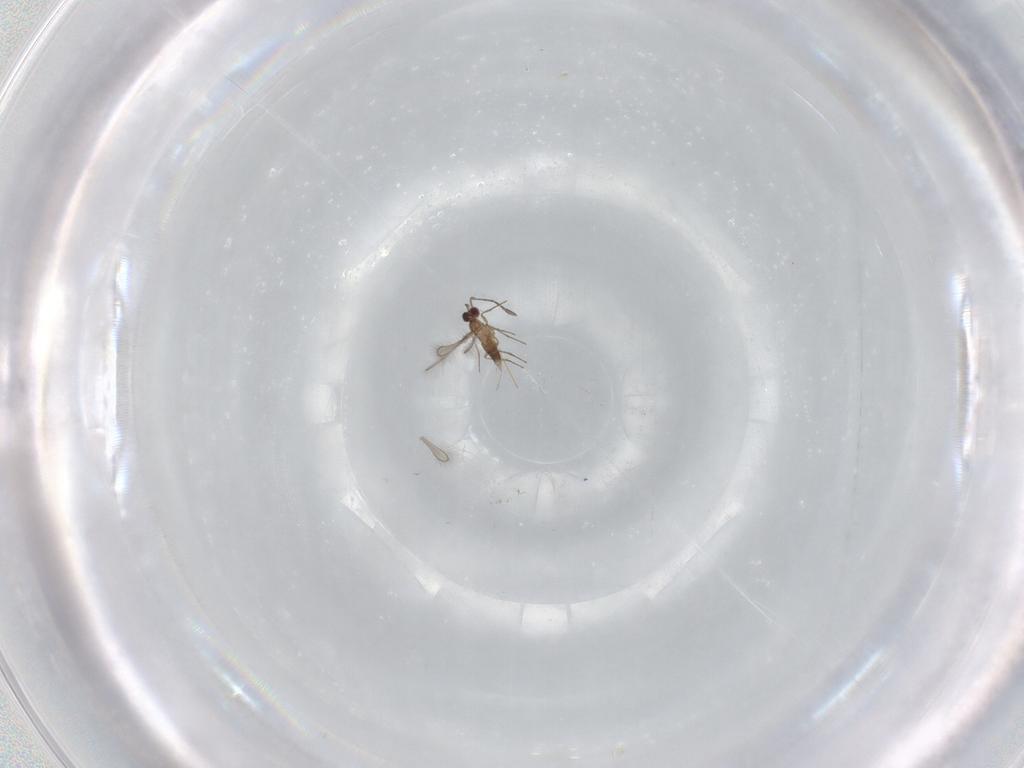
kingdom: Animalia
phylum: Arthropoda
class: Insecta
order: Hymenoptera
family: Mymaridae
